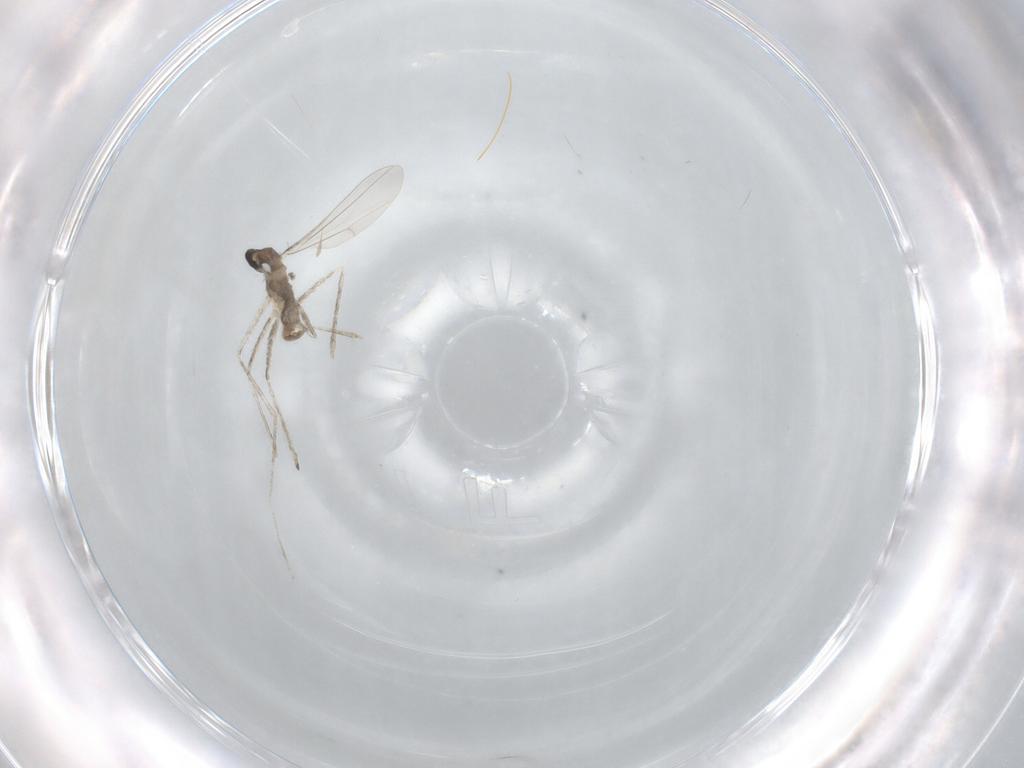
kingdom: Animalia
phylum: Arthropoda
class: Insecta
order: Diptera
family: Cecidomyiidae
